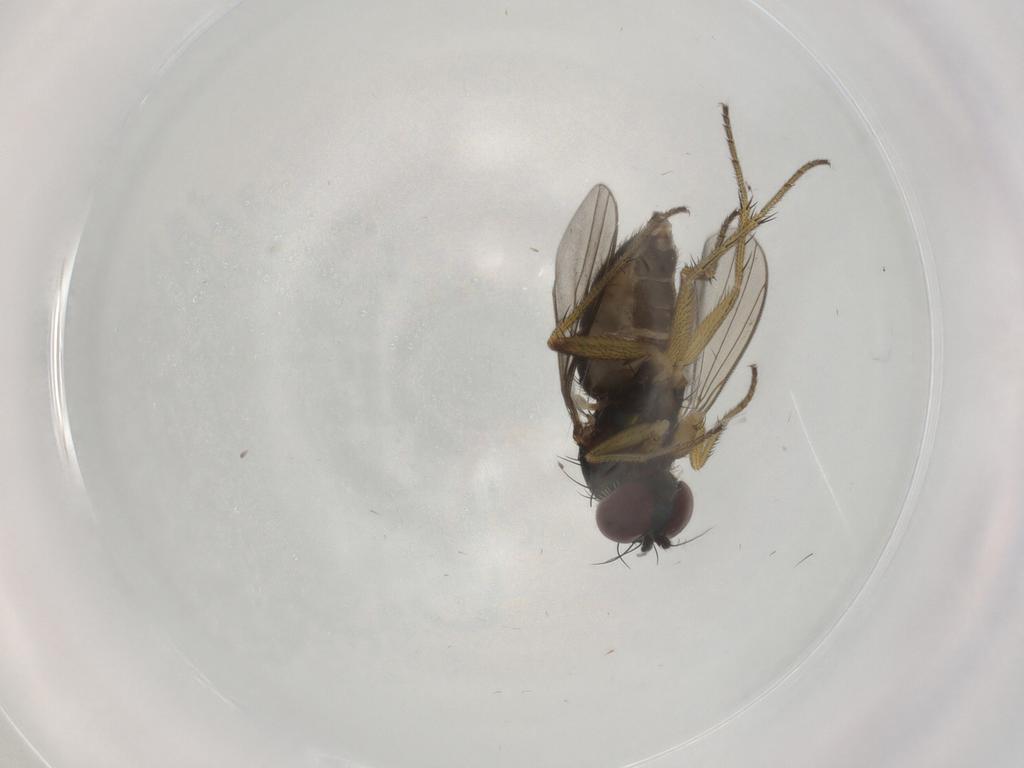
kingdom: Animalia
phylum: Arthropoda
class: Insecta
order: Diptera
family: Dolichopodidae
